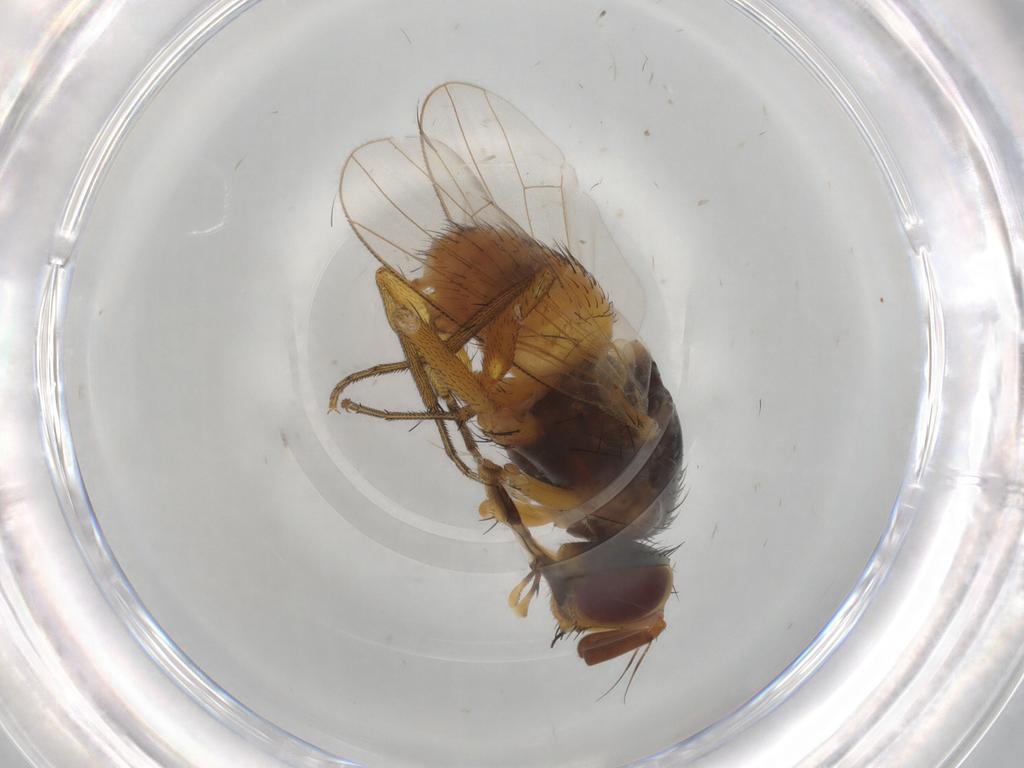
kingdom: Animalia
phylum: Arthropoda
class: Insecta
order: Diptera
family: Muscidae
